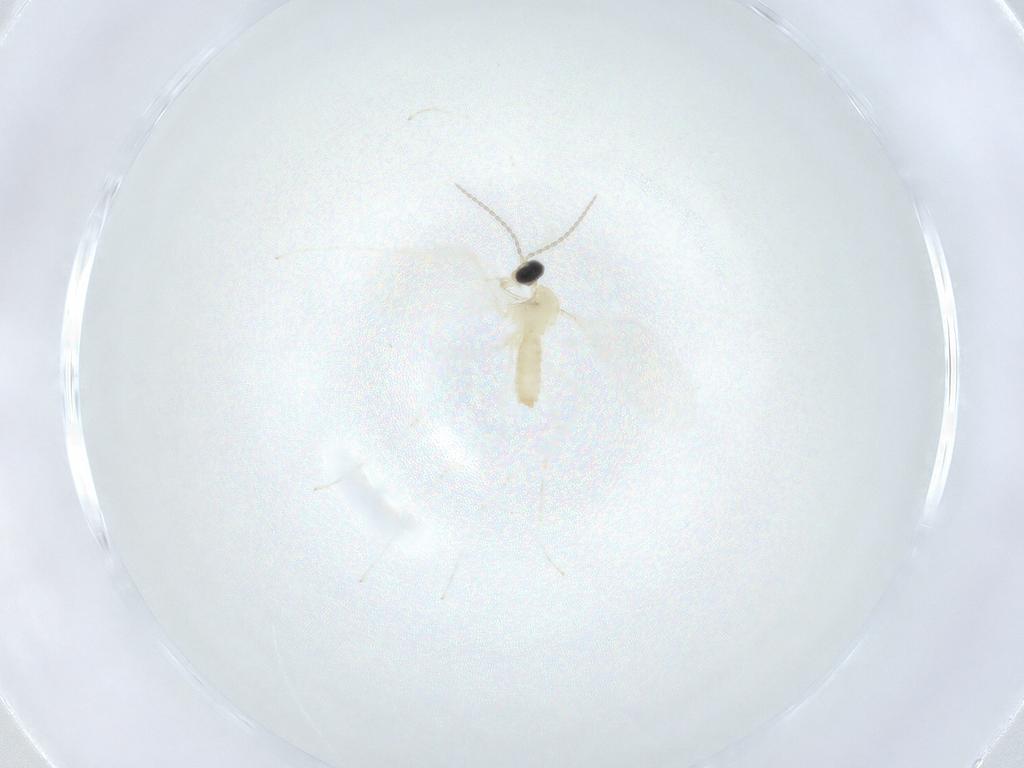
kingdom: Animalia
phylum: Arthropoda
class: Insecta
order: Diptera
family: Cecidomyiidae
